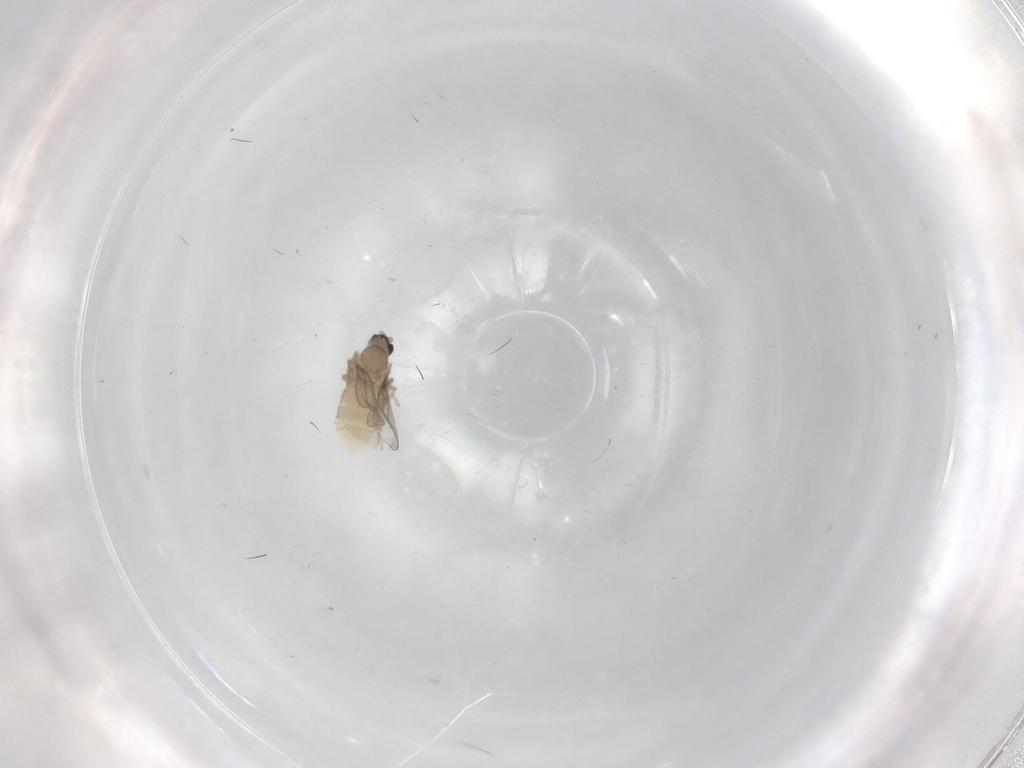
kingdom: Animalia
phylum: Arthropoda
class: Insecta
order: Diptera
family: Cecidomyiidae
